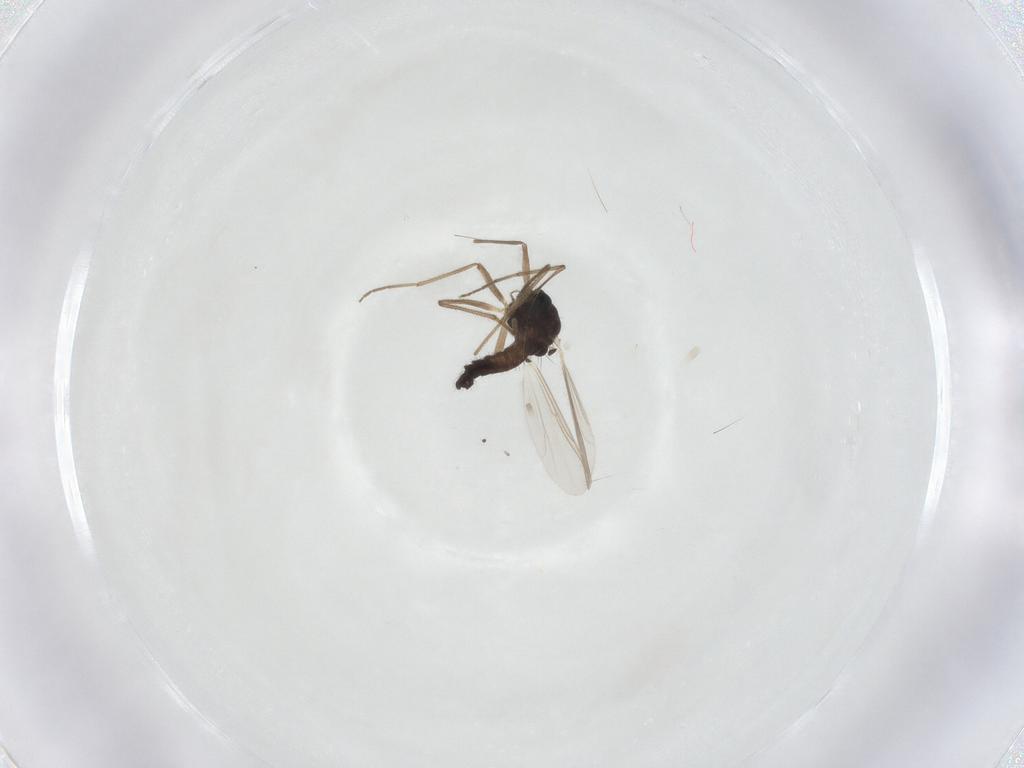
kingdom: Animalia
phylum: Arthropoda
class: Insecta
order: Diptera
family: Chironomidae
